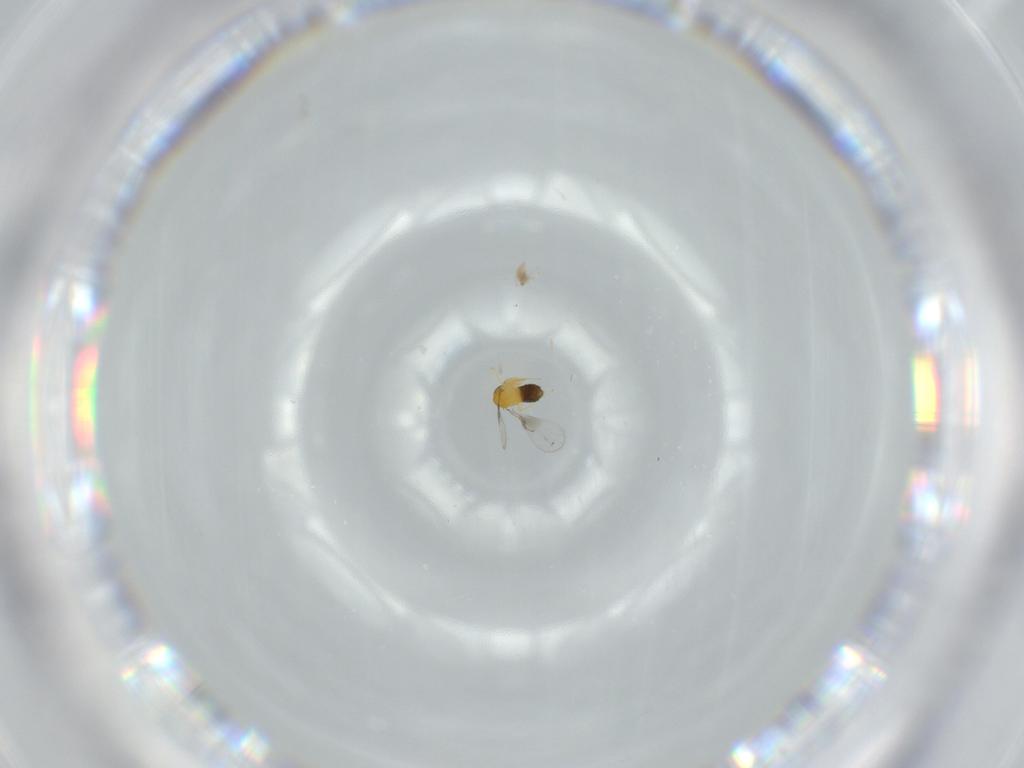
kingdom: Animalia
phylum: Arthropoda
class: Insecta
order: Hymenoptera
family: Trichogrammatidae
